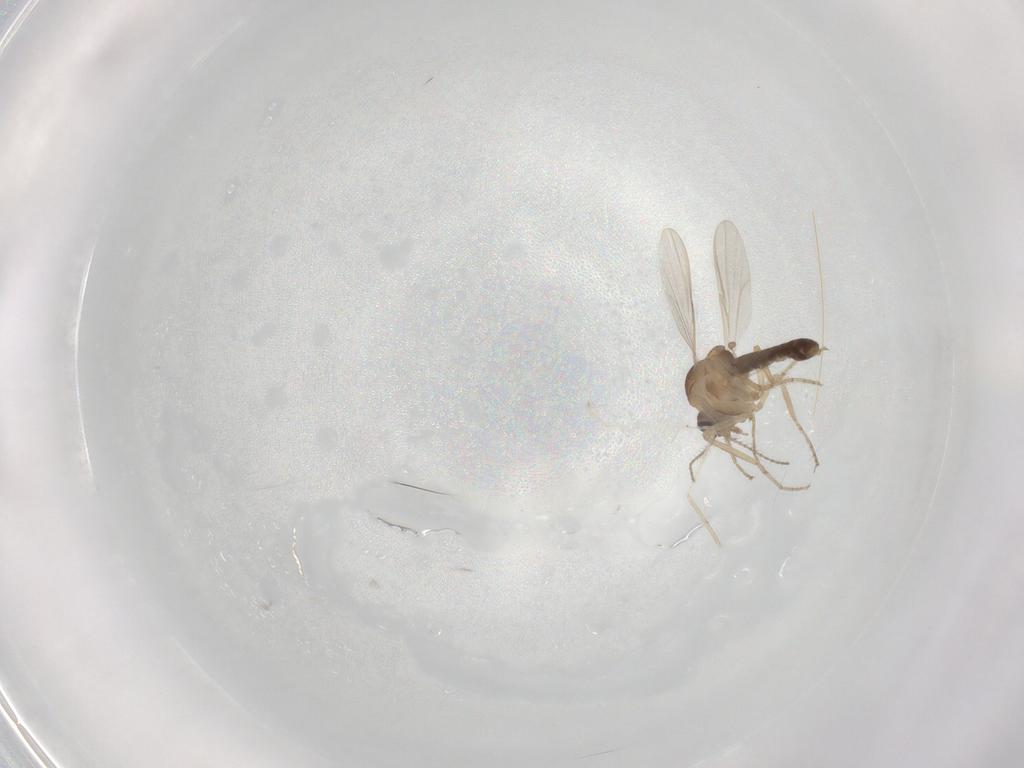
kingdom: Animalia
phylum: Arthropoda
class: Insecta
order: Diptera
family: Ceratopogonidae
